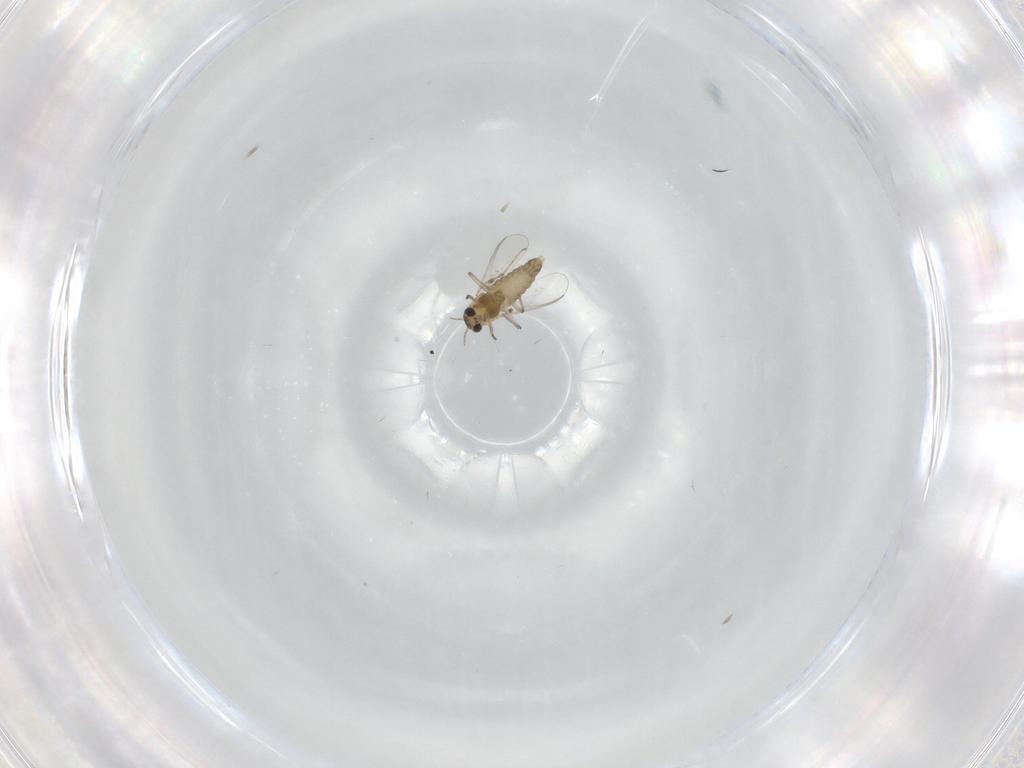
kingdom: Animalia
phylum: Arthropoda
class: Insecta
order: Diptera
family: Chironomidae
